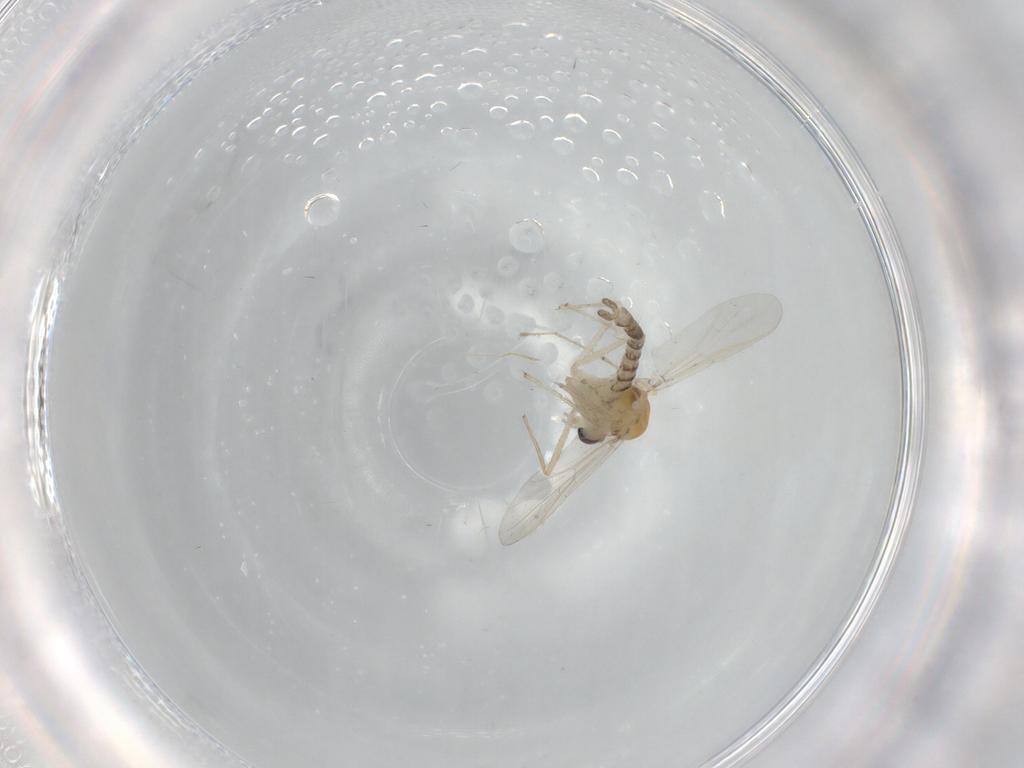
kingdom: Animalia
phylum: Arthropoda
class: Insecta
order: Diptera
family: Chironomidae
